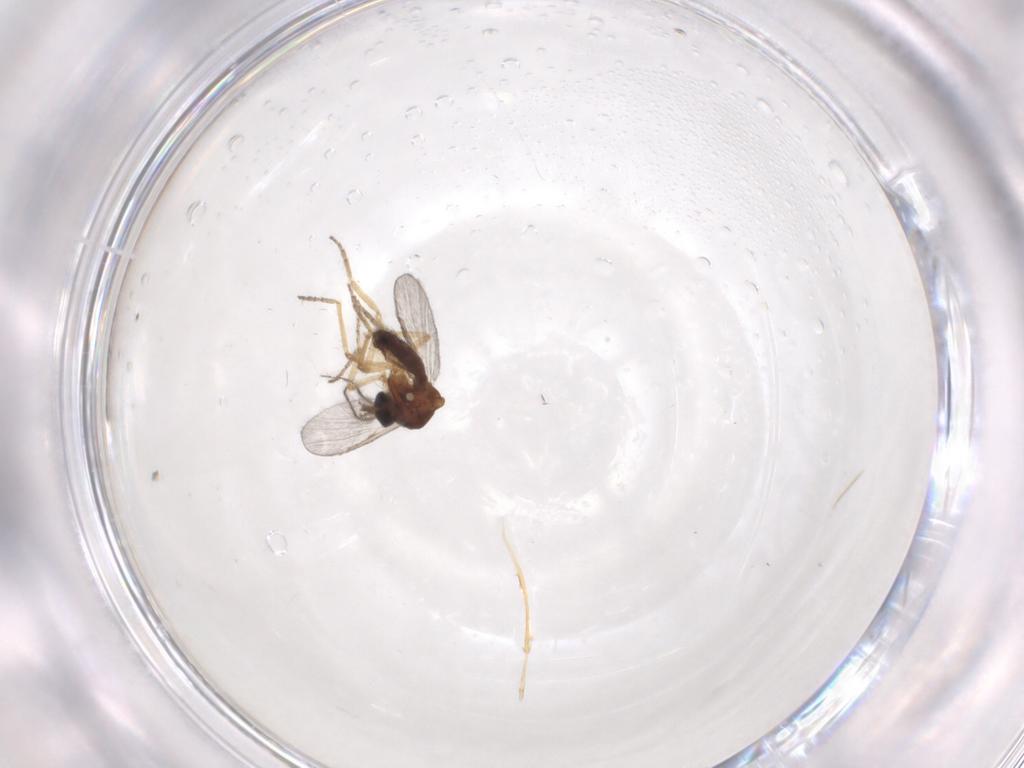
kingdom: Animalia
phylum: Arthropoda
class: Insecta
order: Diptera
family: Ceratopogonidae
